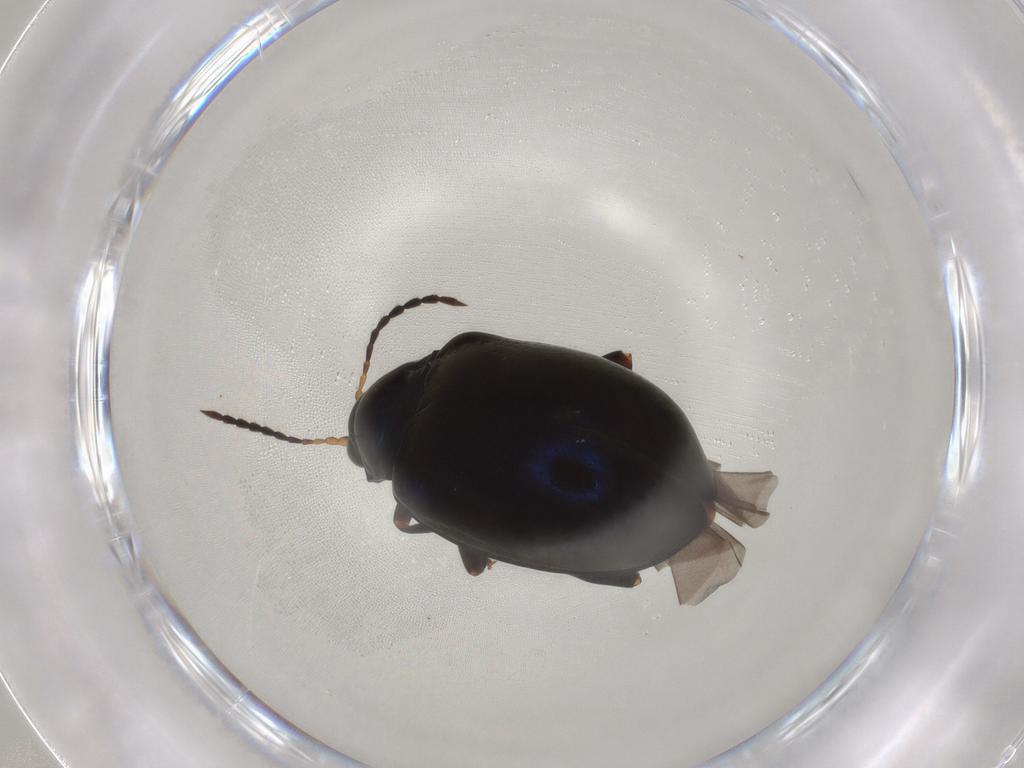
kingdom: Animalia
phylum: Arthropoda
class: Insecta
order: Coleoptera
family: Chrysomelidae
